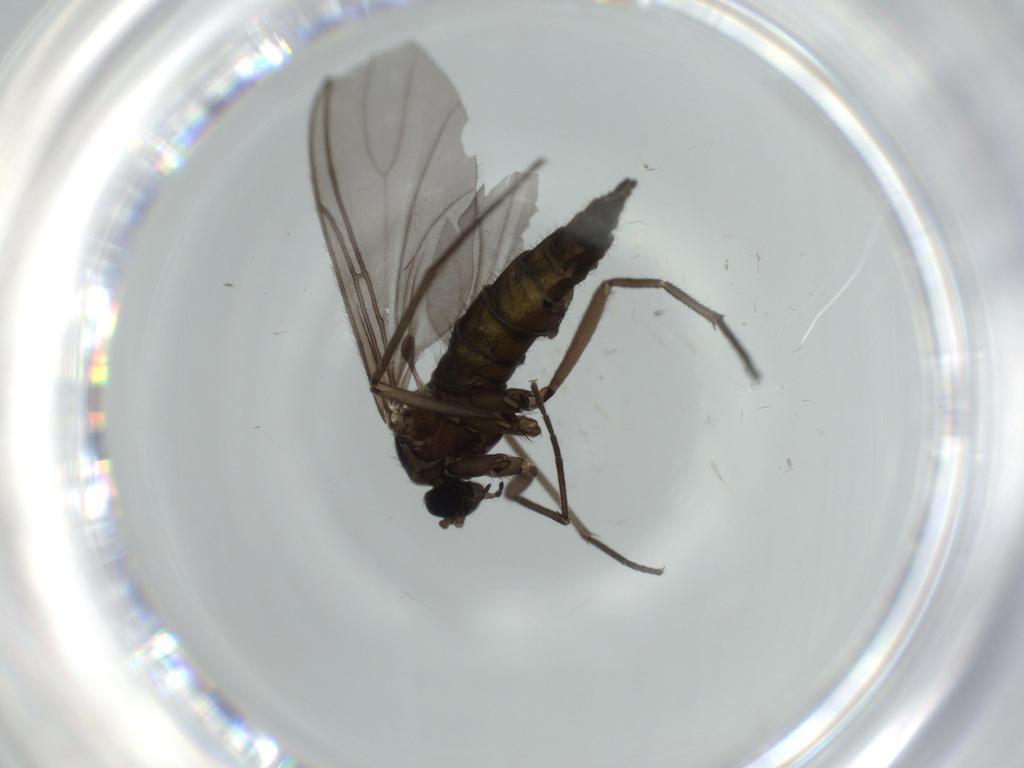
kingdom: Animalia
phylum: Arthropoda
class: Insecta
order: Diptera
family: Sciaridae
